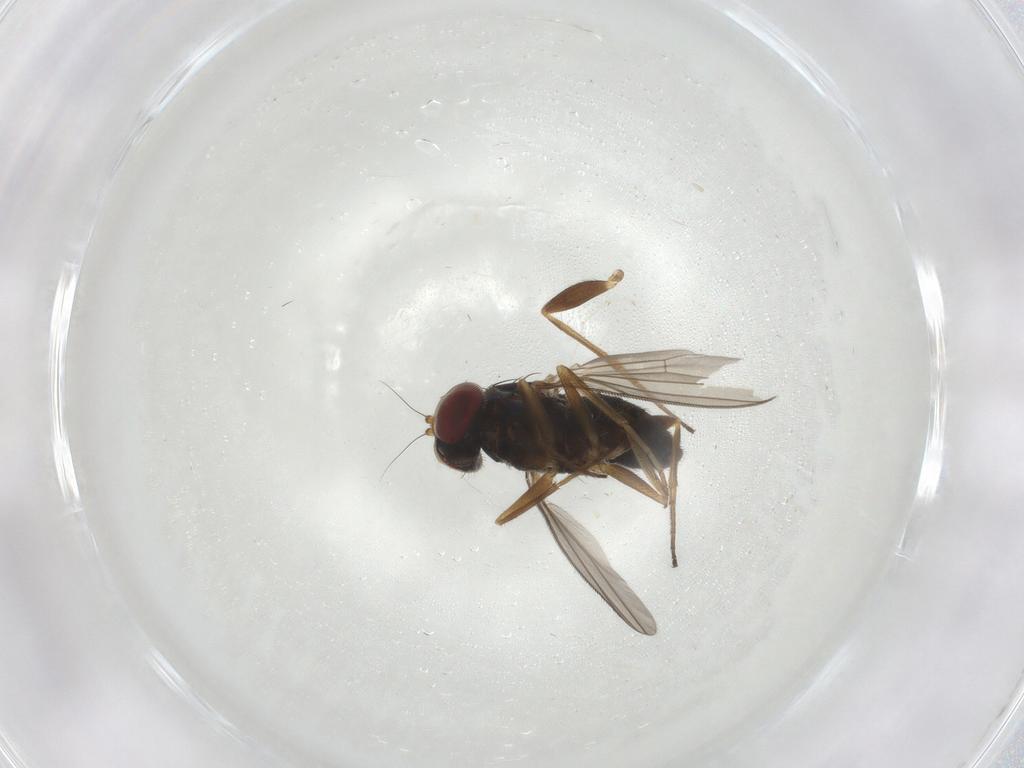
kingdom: Animalia
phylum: Arthropoda
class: Insecta
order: Diptera
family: Dolichopodidae
